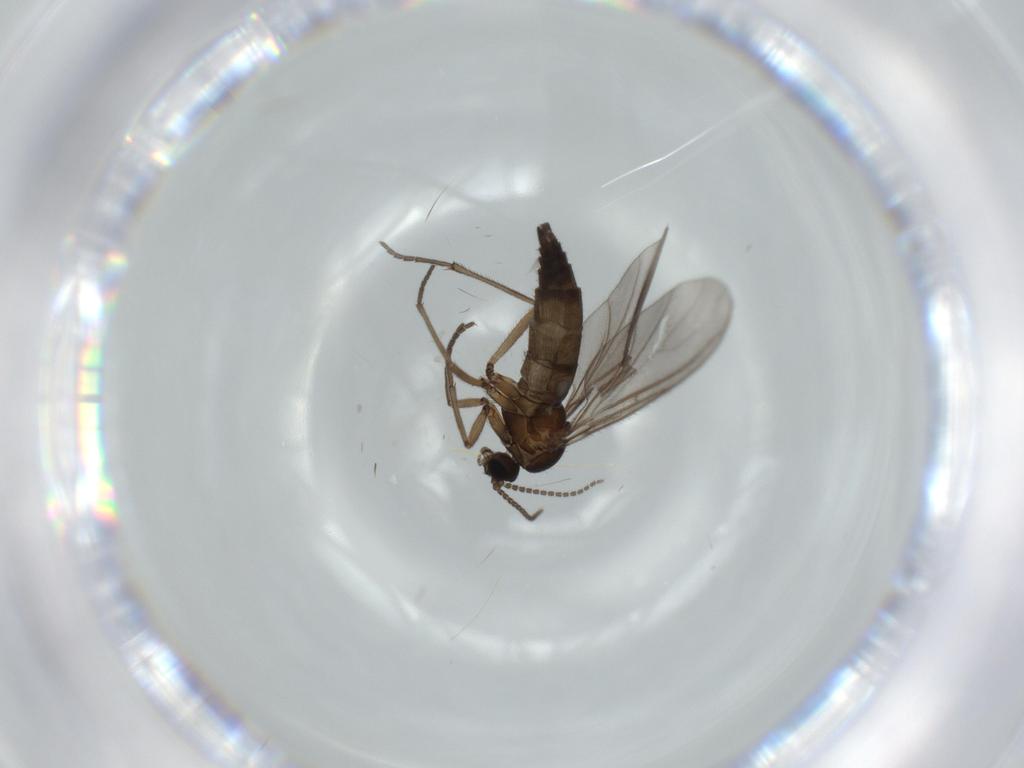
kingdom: Animalia
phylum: Arthropoda
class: Insecta
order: Diptera
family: Sciaridae
